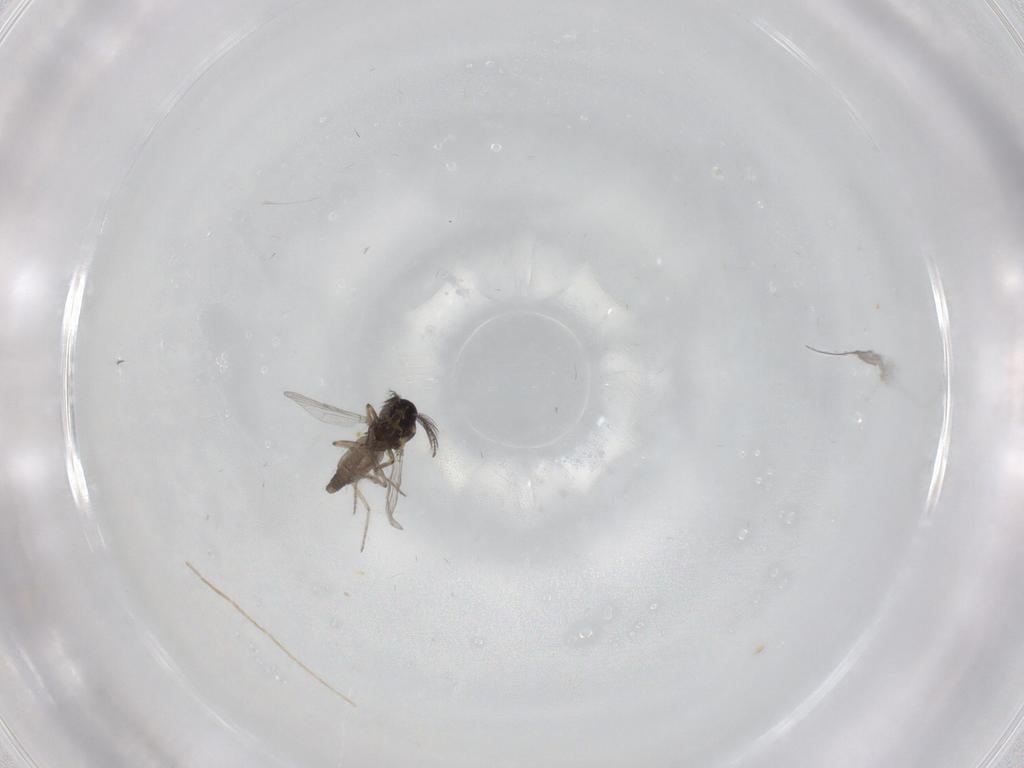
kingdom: Animalia
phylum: Arthropoda
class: Insecta
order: Diptera
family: Ceratopogonidae
